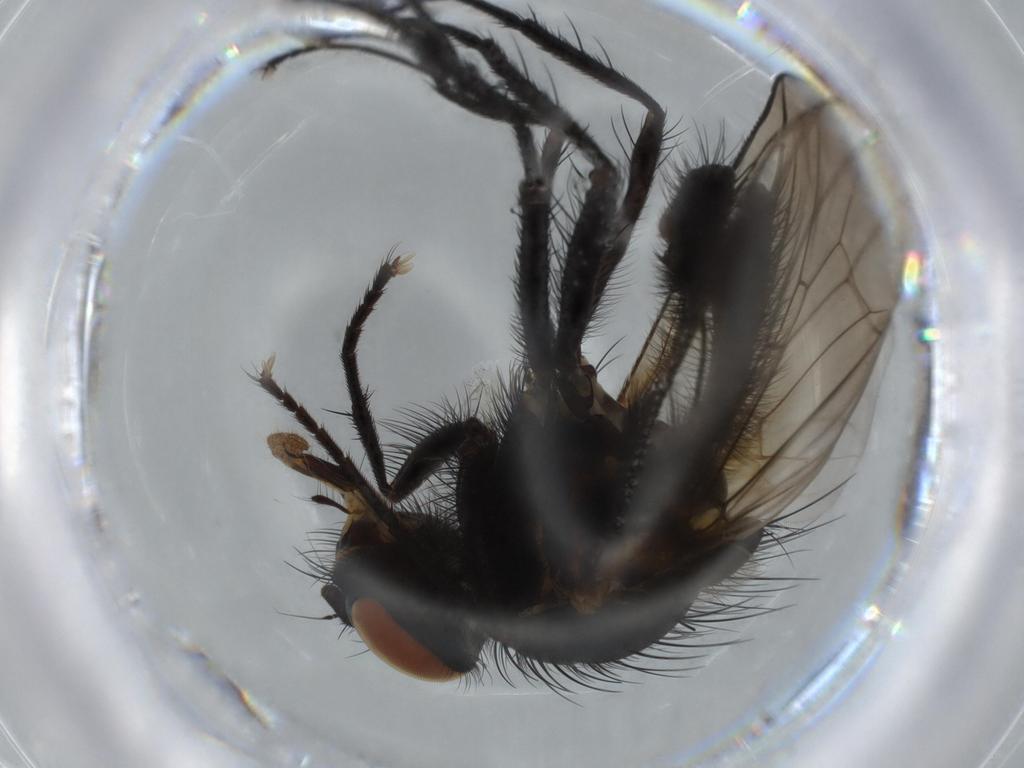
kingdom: Animalia
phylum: Arthropoda
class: Insecta
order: Diptera
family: Anthomyiidae
